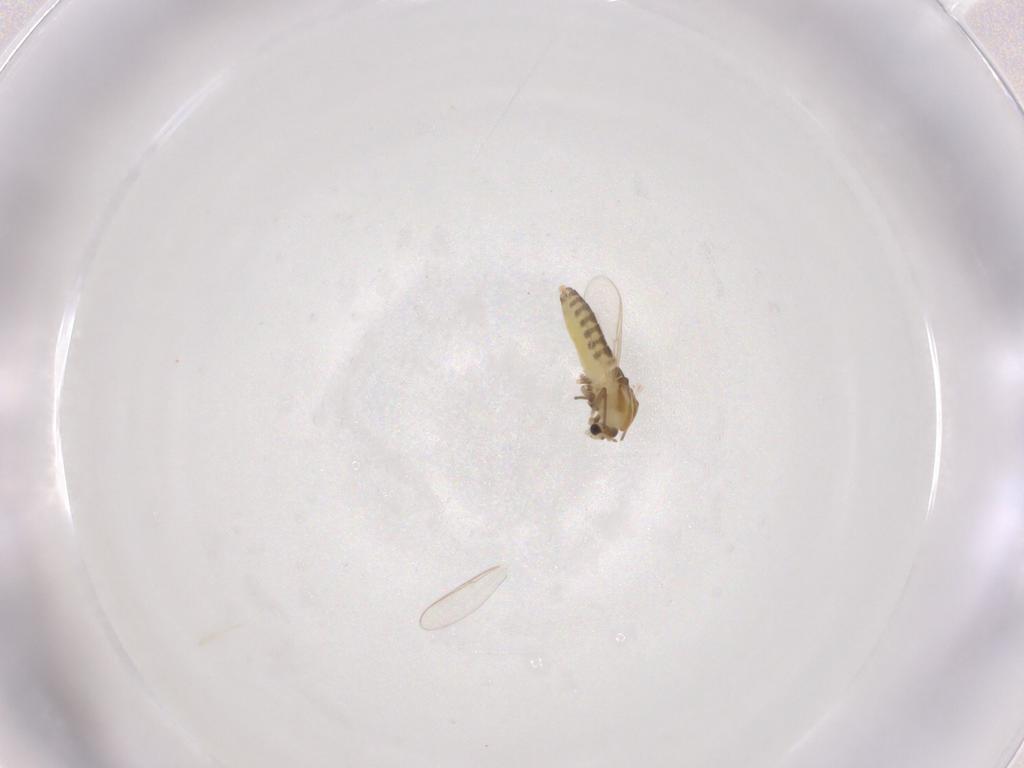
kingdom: Animalia
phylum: Arthropoda
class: Insecta
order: Diptera
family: Chironomidae
